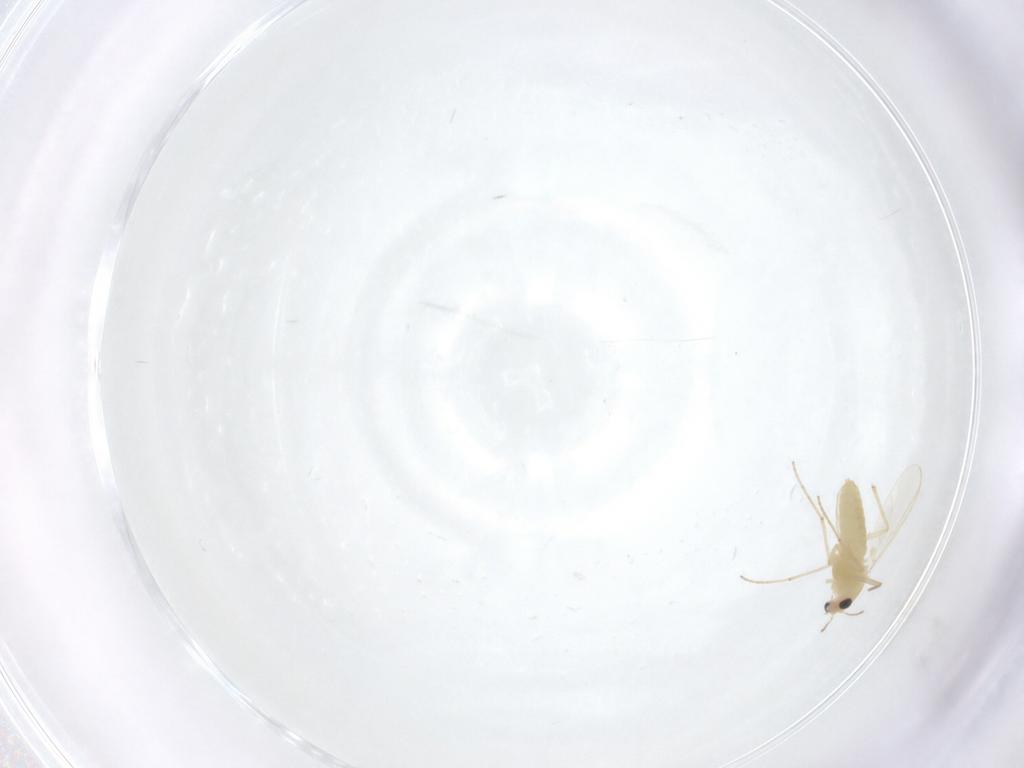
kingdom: Animalia
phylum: Arthropoda
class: Insecta
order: Diptera
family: Chironomidae
